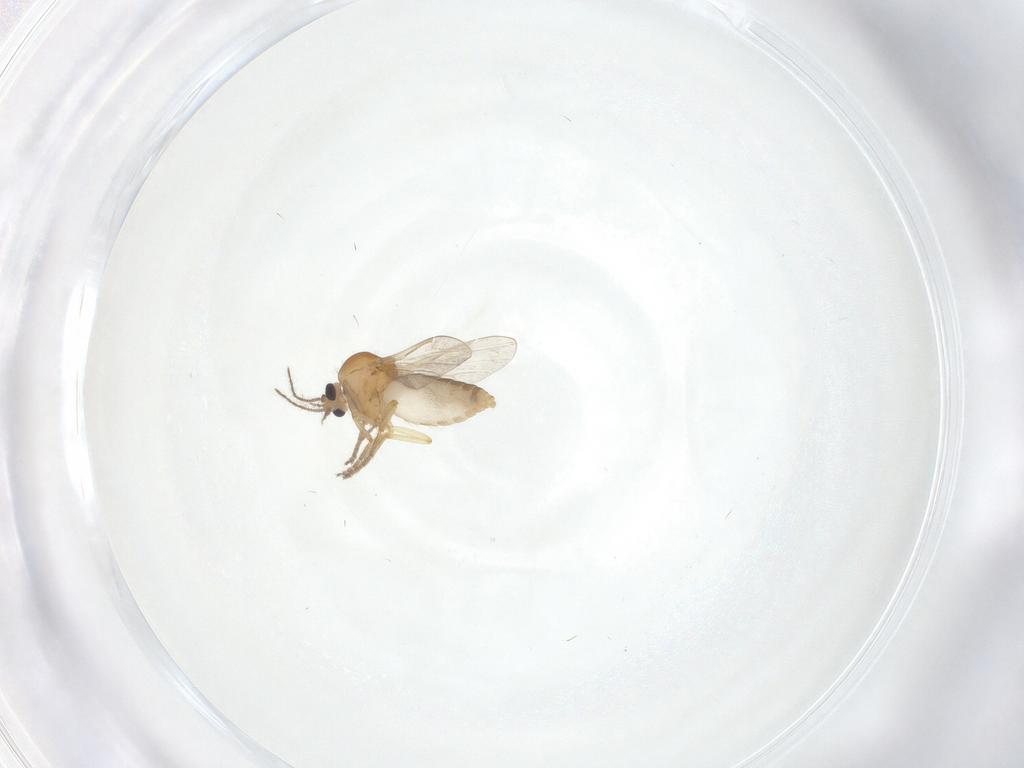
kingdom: Animalia
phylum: Arthropoda
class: Insecta
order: Diptera
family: Ceratopogonidae
